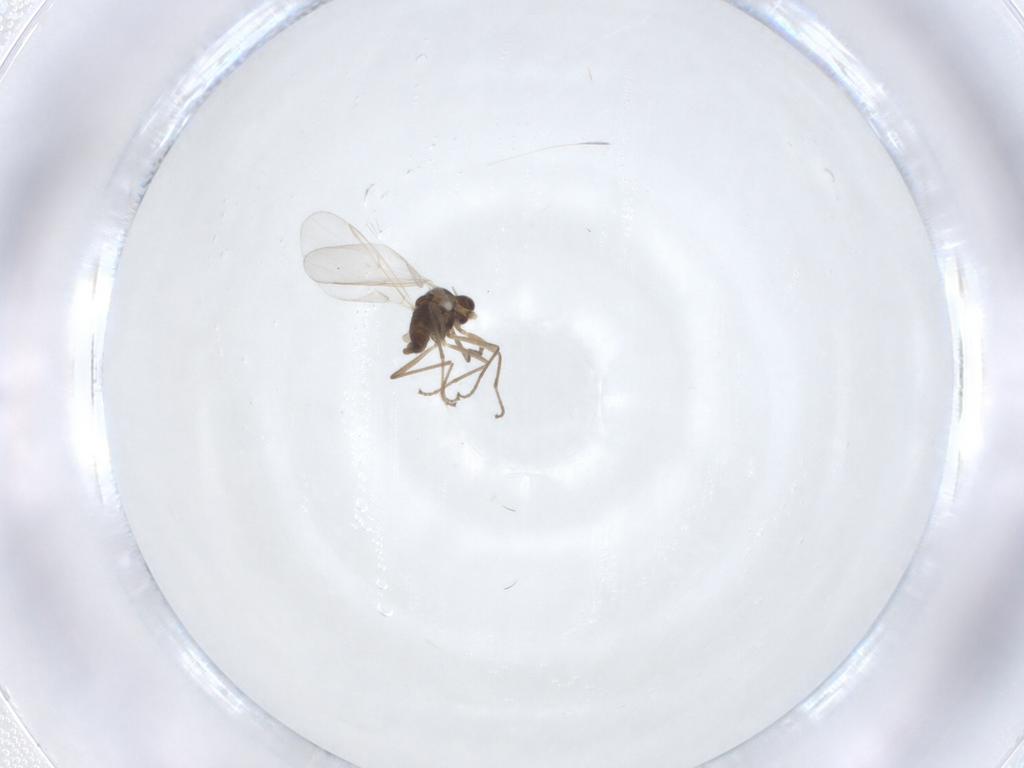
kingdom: Animalia
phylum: Arthropoda
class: Insecta
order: Diptera
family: Cecidomyiidae
